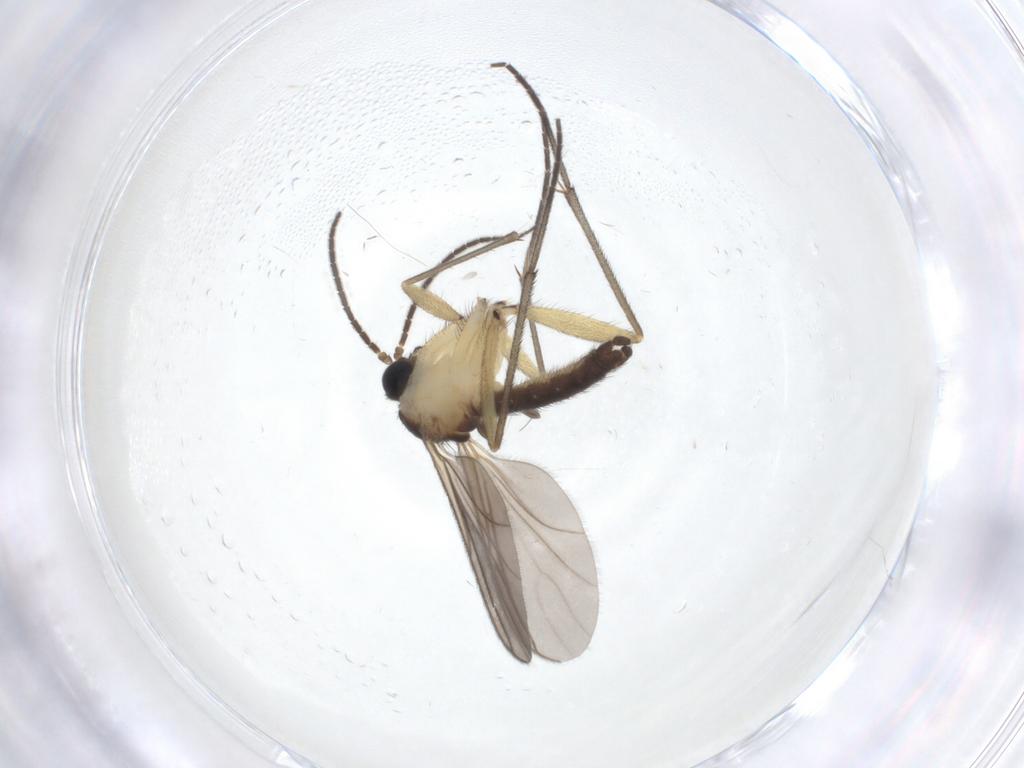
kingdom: Animalia
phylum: Arthropoda
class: Insecta
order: Diptera
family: Sciaridae
